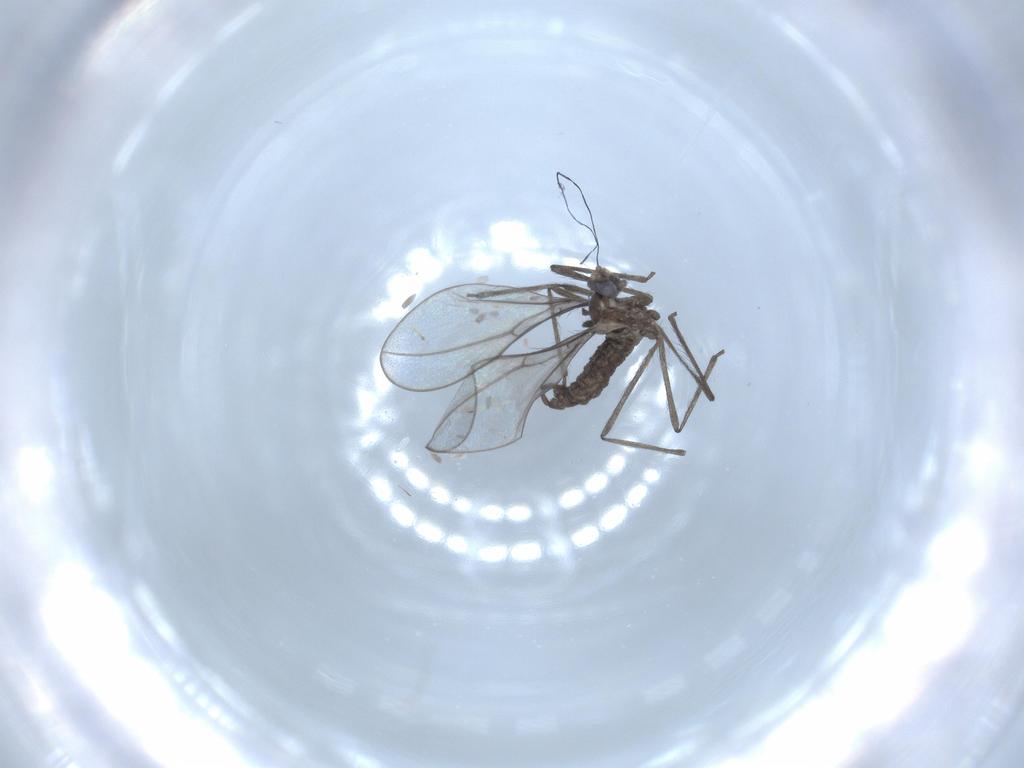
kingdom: Animalia
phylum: Arthropoda
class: Insecta
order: Diptera
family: Cecidomyiidae
